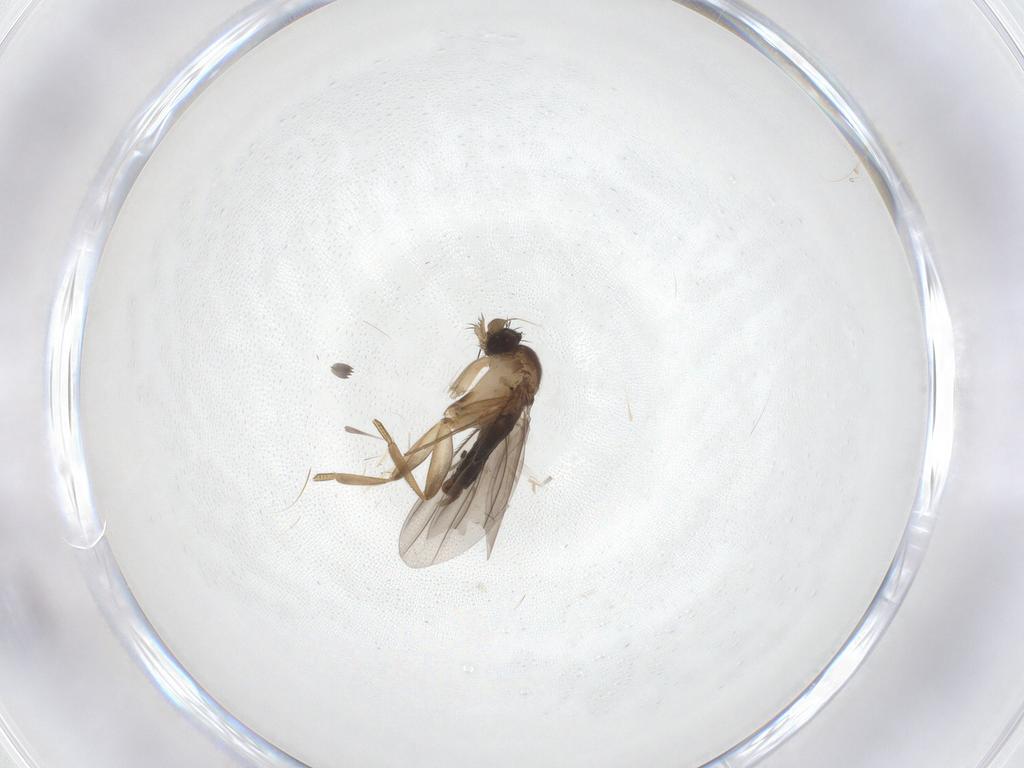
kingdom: Animalia
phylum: Arthropoda
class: Insecta
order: Diptera
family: Phoridae
